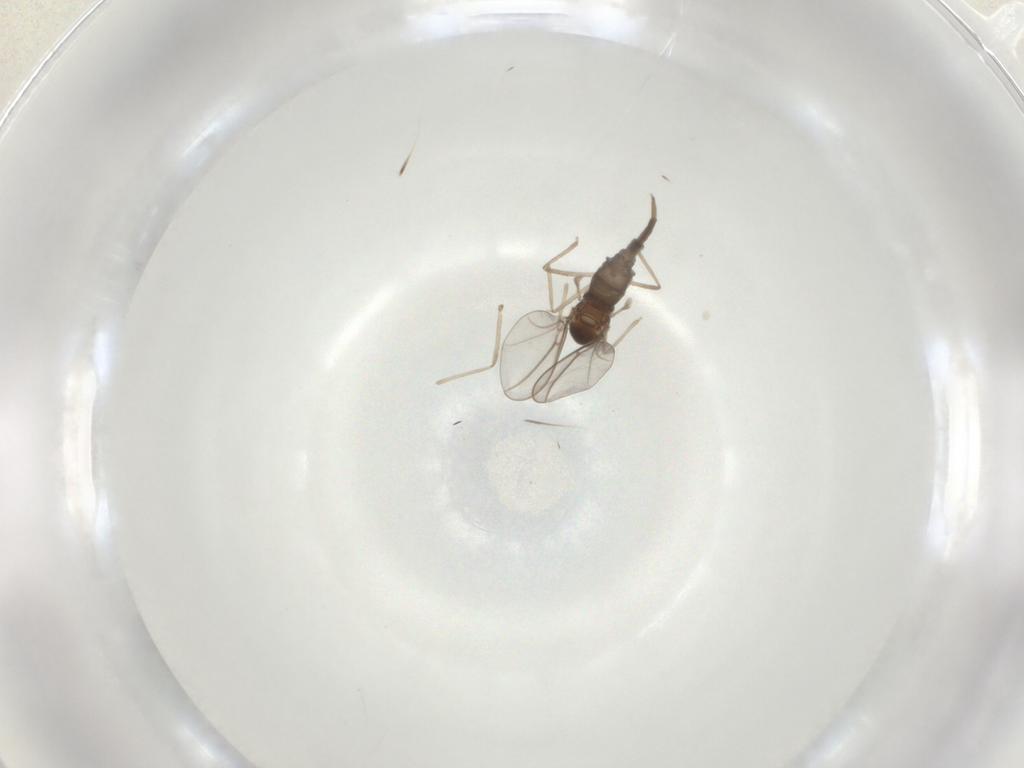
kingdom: Animalia
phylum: Arthropoda
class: Insecta
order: Diptera
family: Cecidomyiidae
